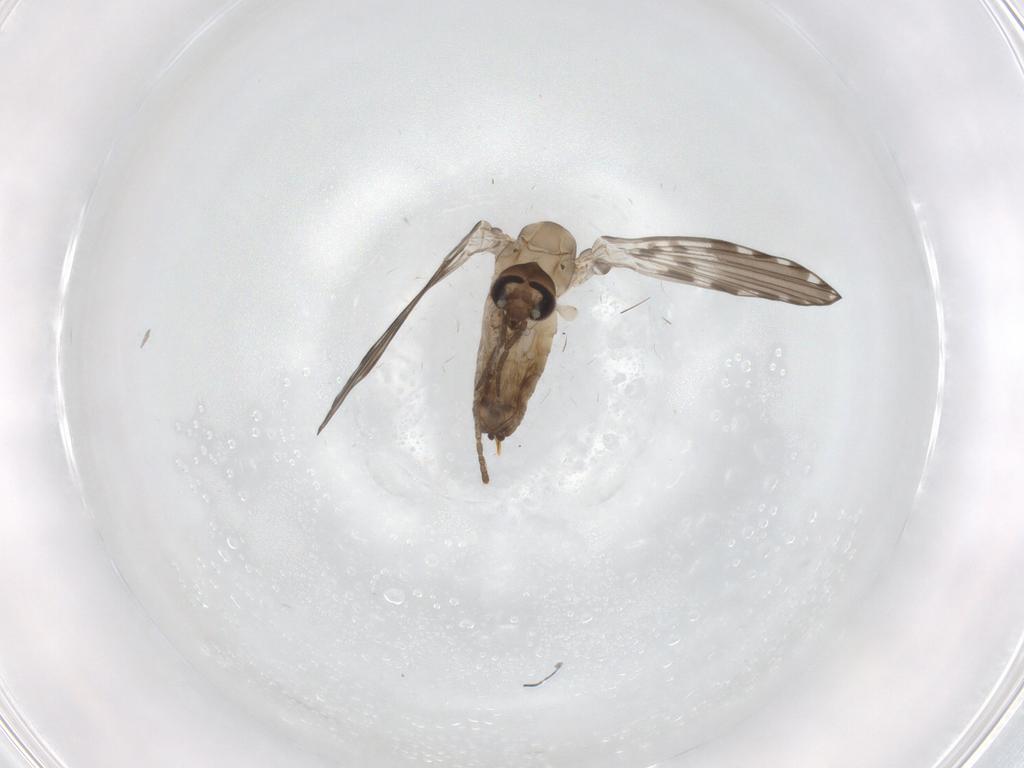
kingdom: Animalia
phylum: Arthropoda
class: Insecta
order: Diptera
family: Psychodidae
